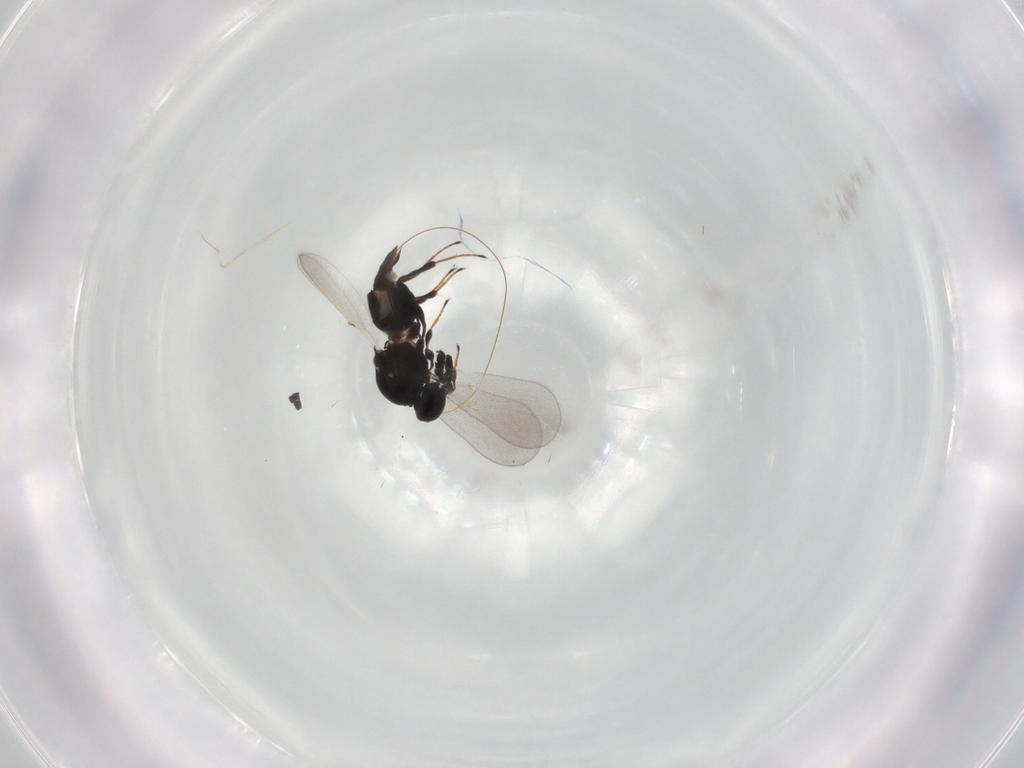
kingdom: Animalia
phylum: Arthropoda
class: Insecta
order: Hymenoptera
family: Platygastridae
